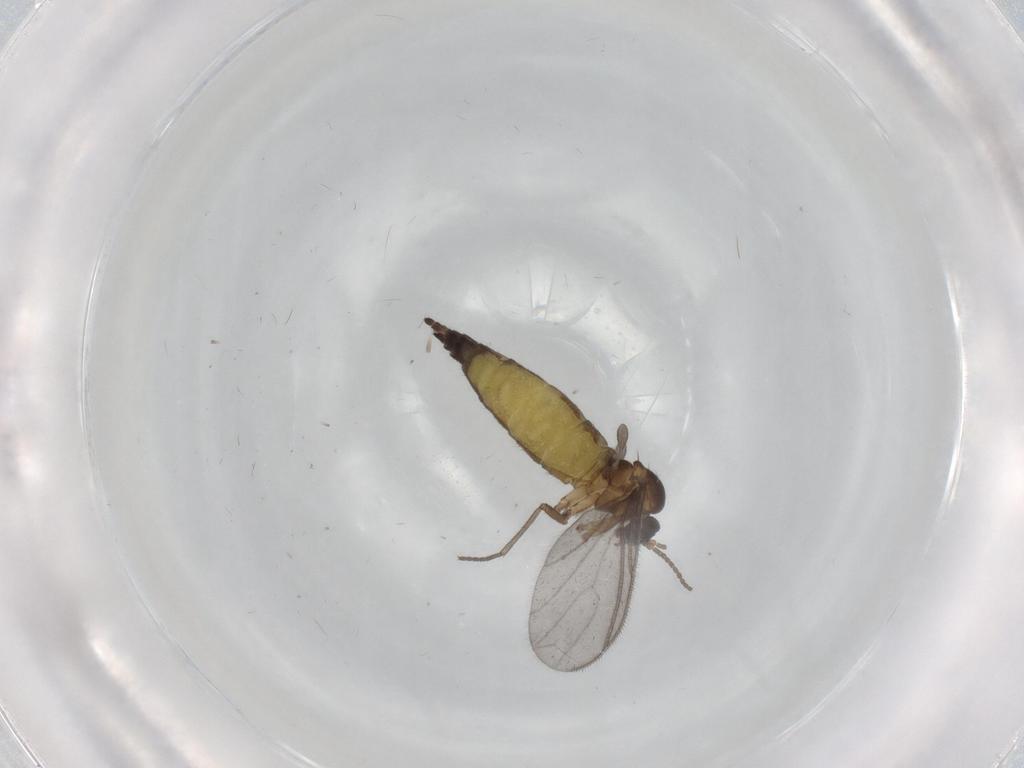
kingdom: Animalia
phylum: Arthropoda
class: Insecta
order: Diptera
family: Sciaridae
